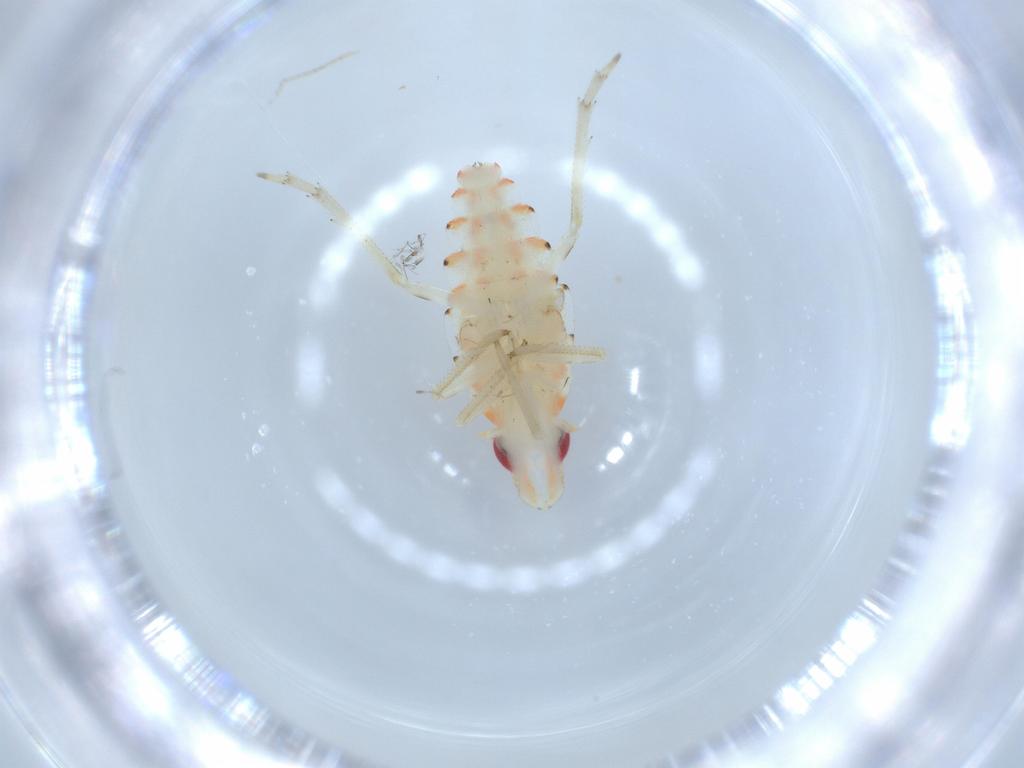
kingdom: Animalia
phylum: Arthropoda
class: Insecta
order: Hemiptera
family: Tropiduchidae
